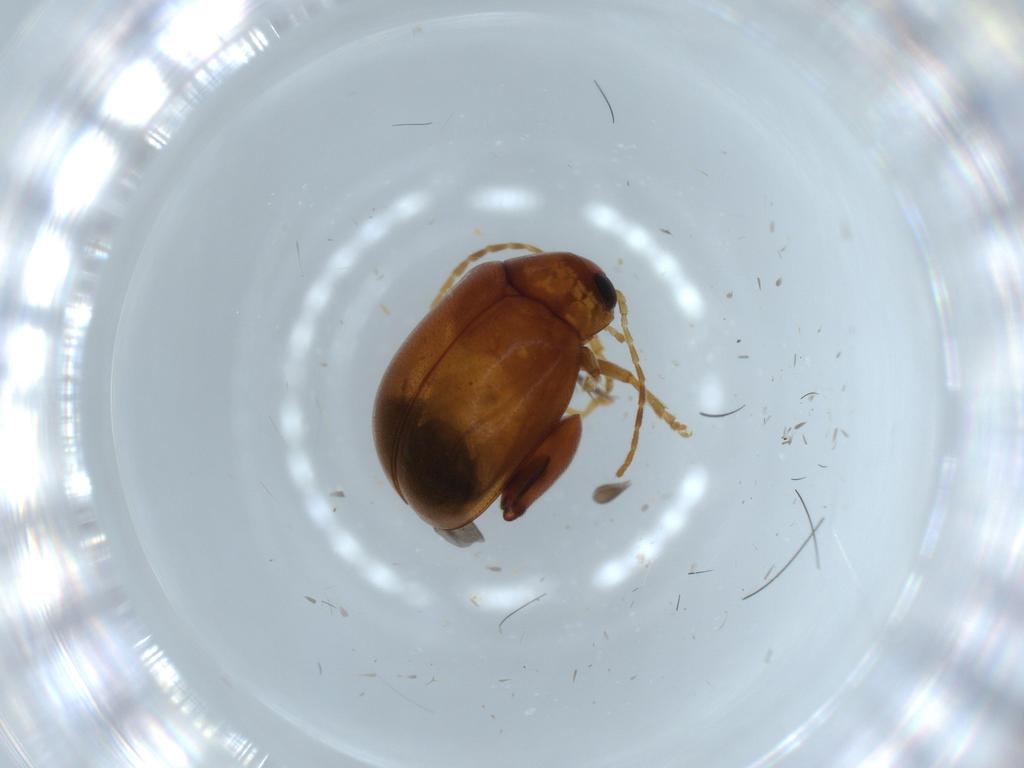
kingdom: Animalia
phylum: Arthropoda
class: Insecta
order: Coleoptera
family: Chrysomelidae
